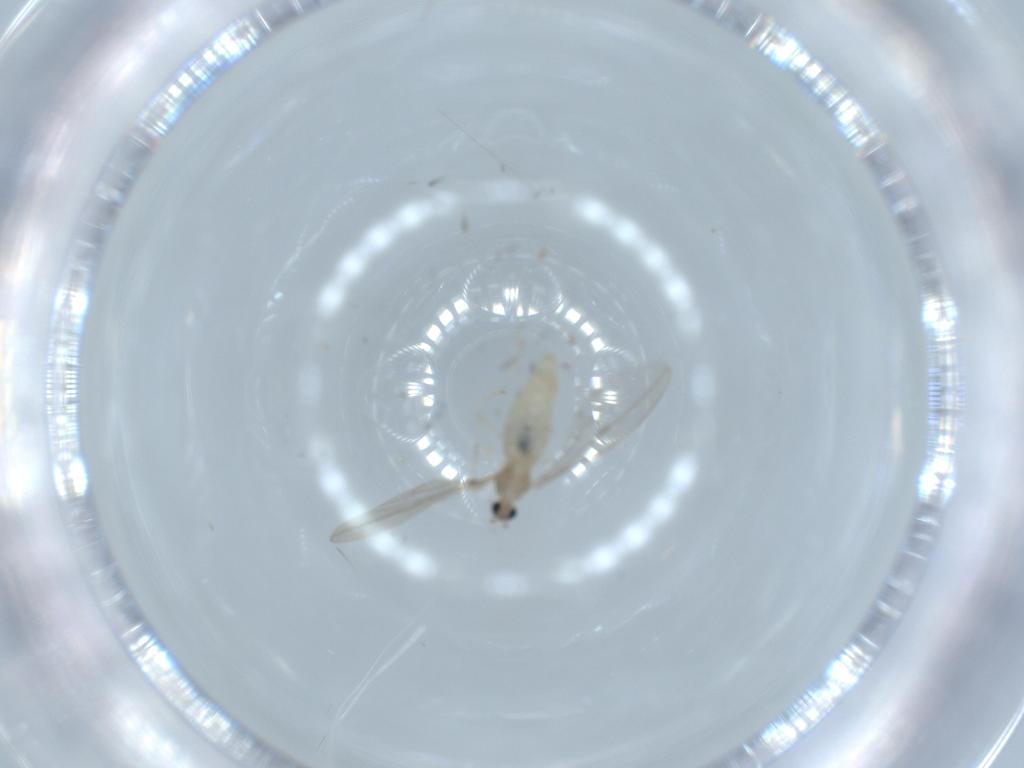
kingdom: Animalia
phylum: Arthropoda
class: Insecta
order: Diptera
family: Cecidomyiidae
